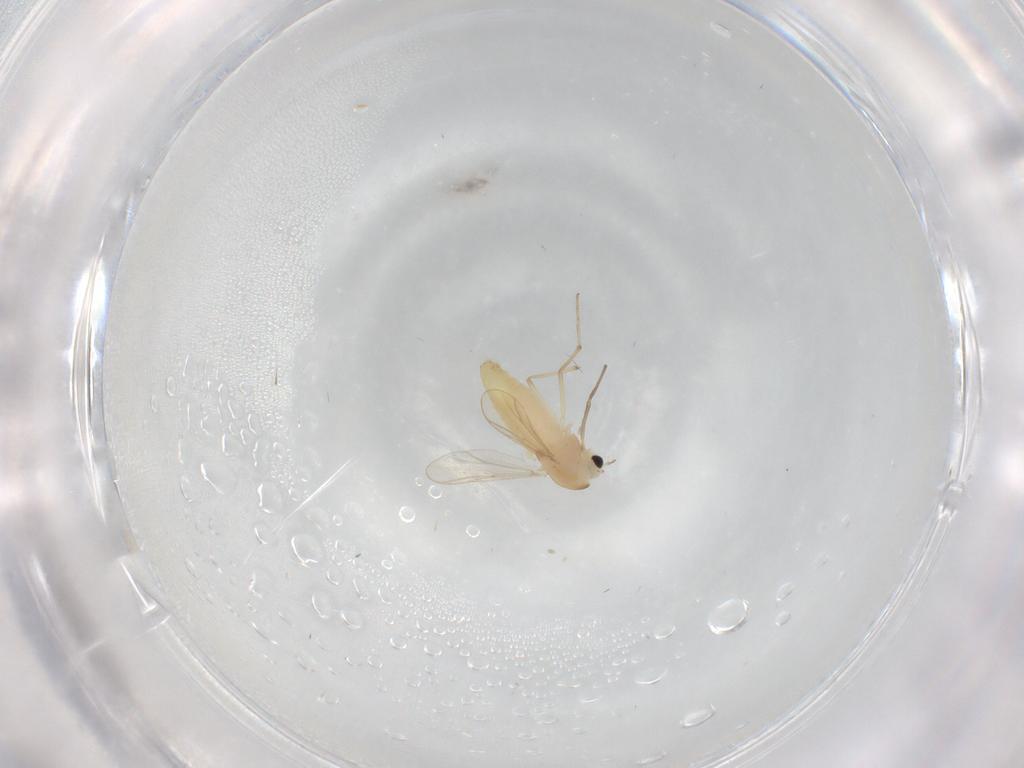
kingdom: Animalia
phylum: Arthropoda
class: Insecta
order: Diptera
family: Chironomidae
